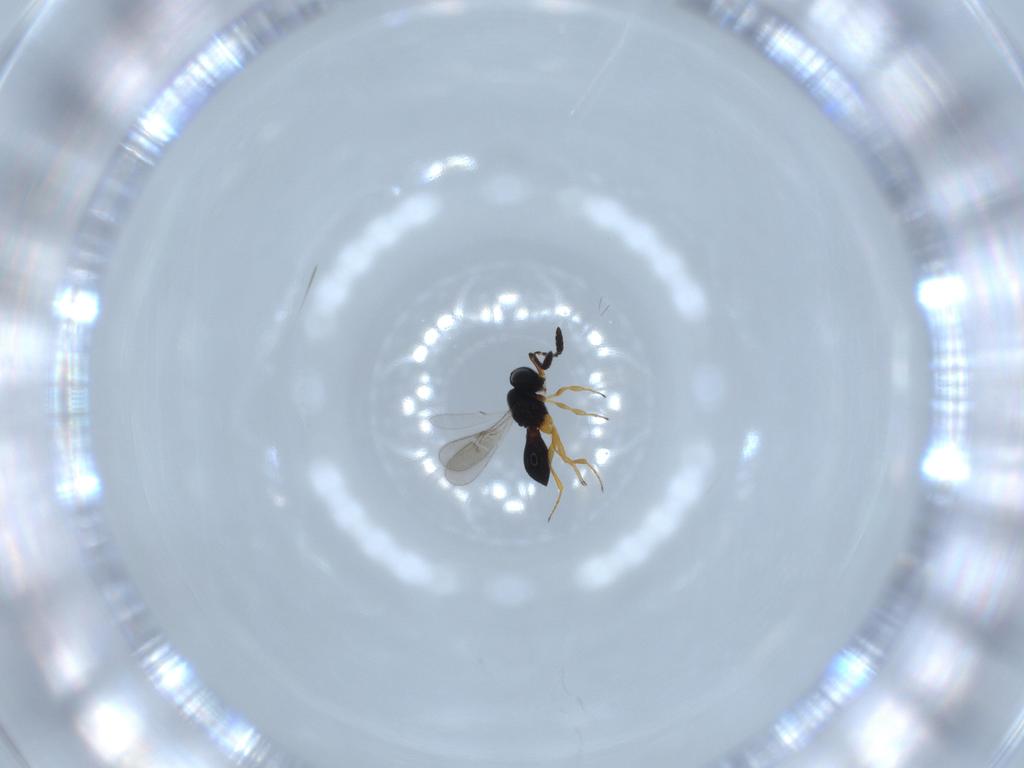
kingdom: Animalia
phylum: Arthropoda
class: Insecta
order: Hymenoptera
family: Scelionidae
